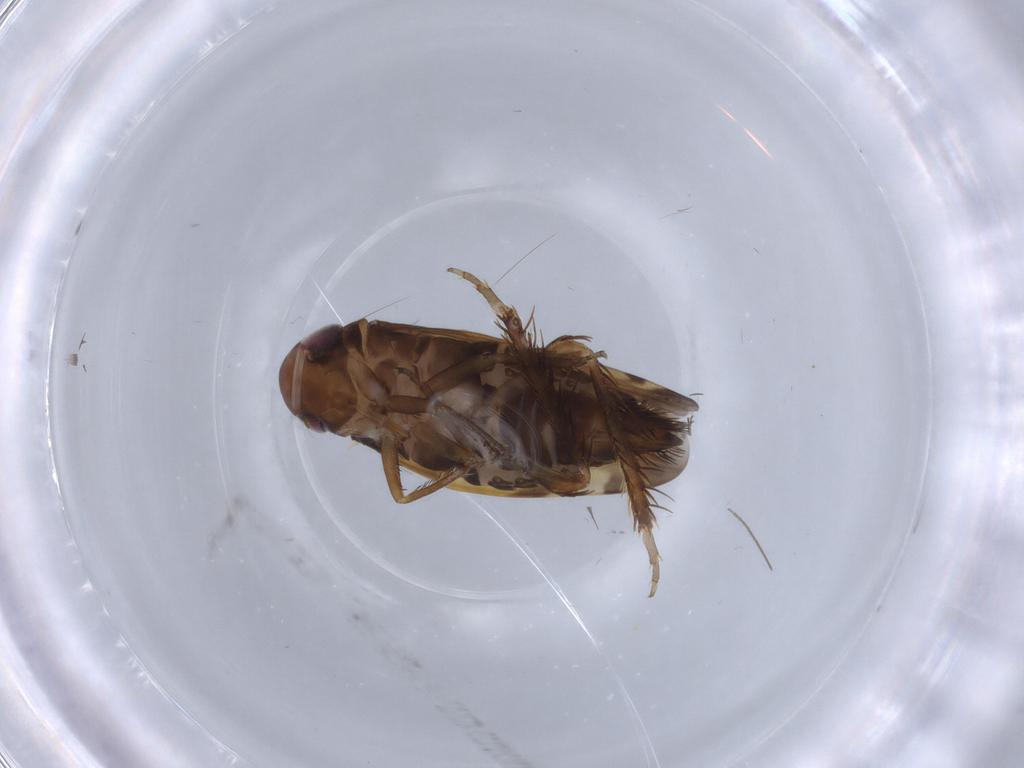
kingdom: Animalia
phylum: Arthropoda
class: Insecta
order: Hemiptera
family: Cicadellidae
